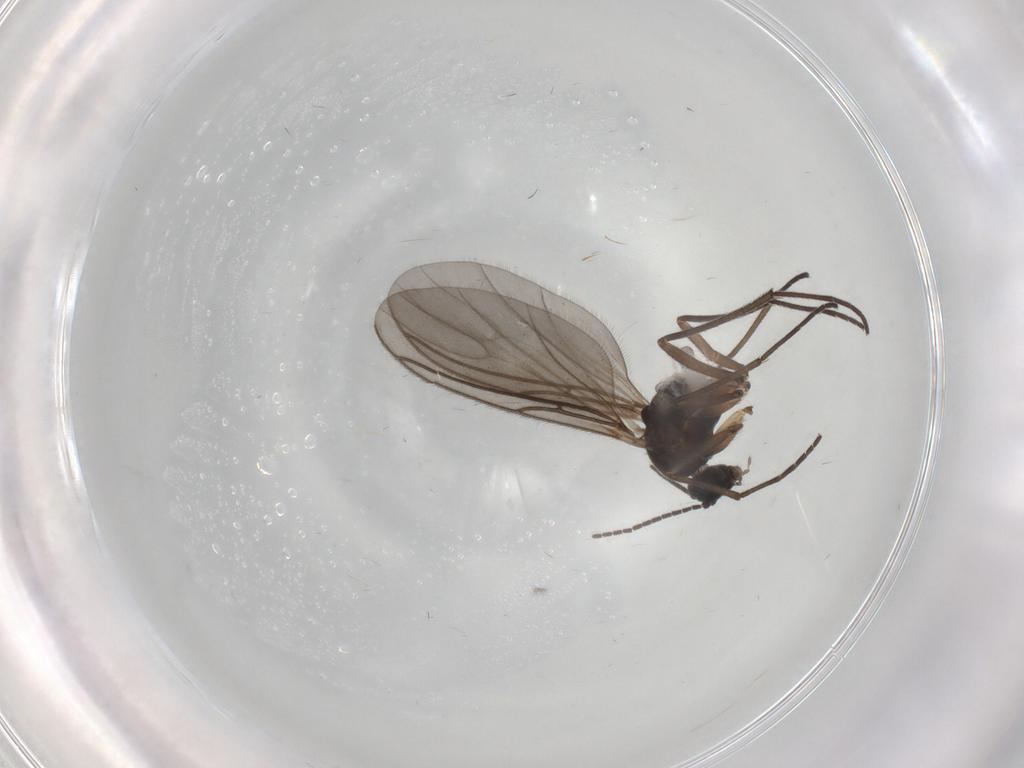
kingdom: Animalia
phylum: Arthropoda
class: Insecta
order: Diptera
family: Sciaridae
